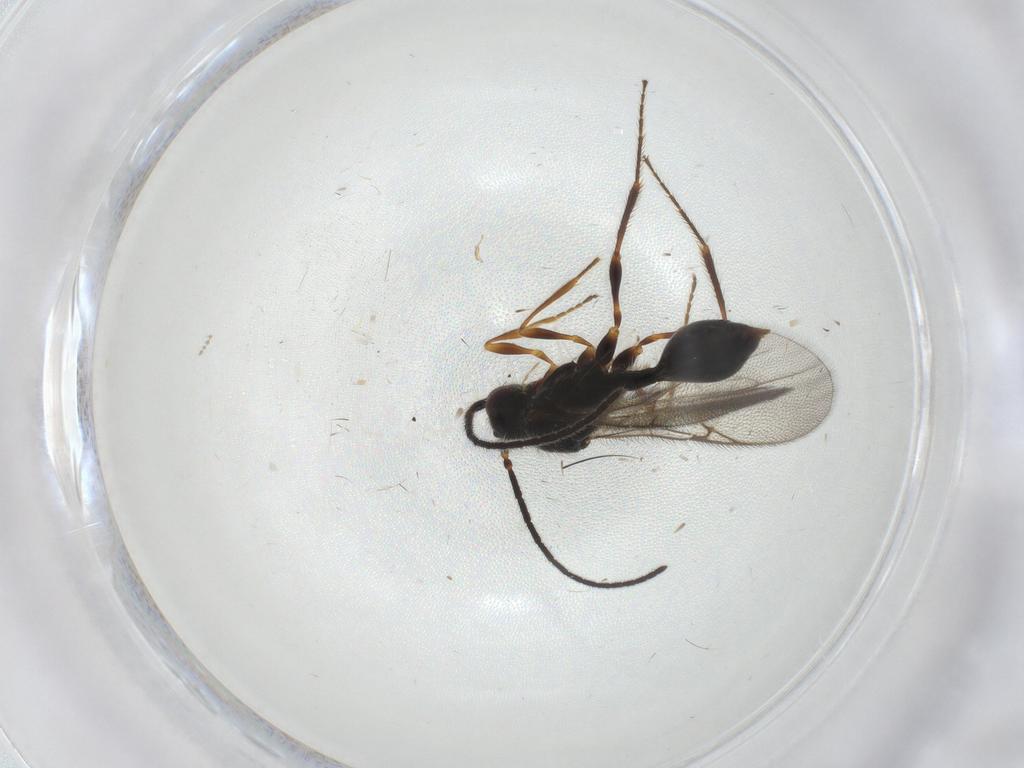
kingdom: Animalia
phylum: Arthropoda
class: Insecta
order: Hymenoptera
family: Diapriidae
